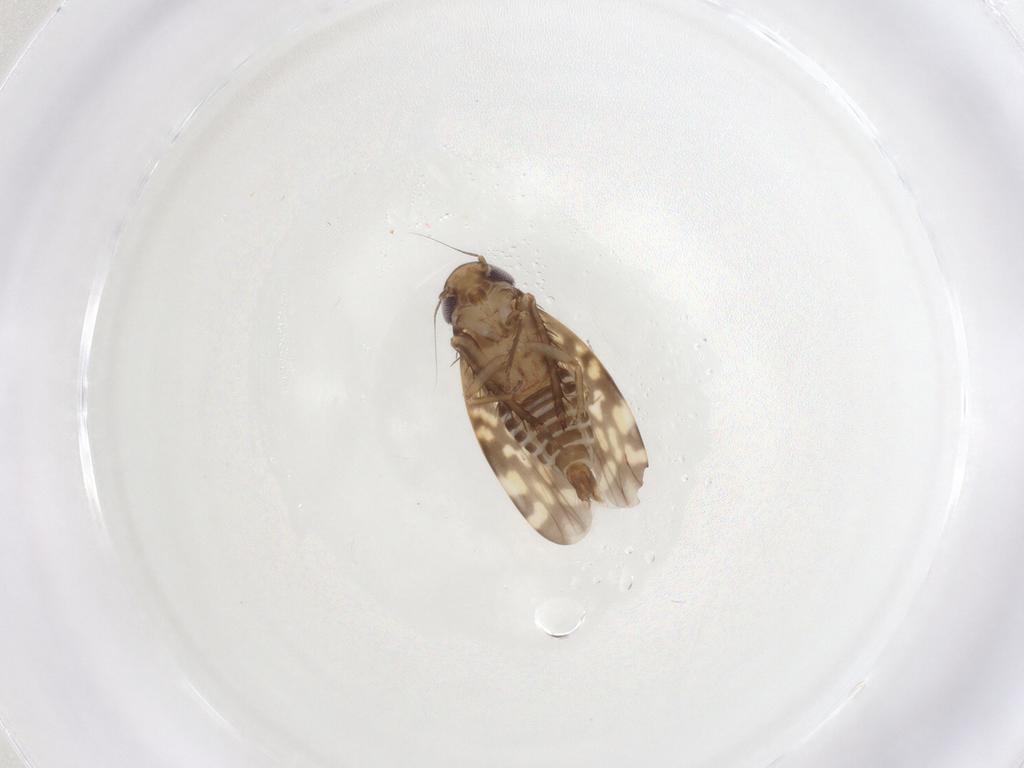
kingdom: Animalia
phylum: Arthropoda
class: Insecta
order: Hemiptera
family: Cicadellidae
